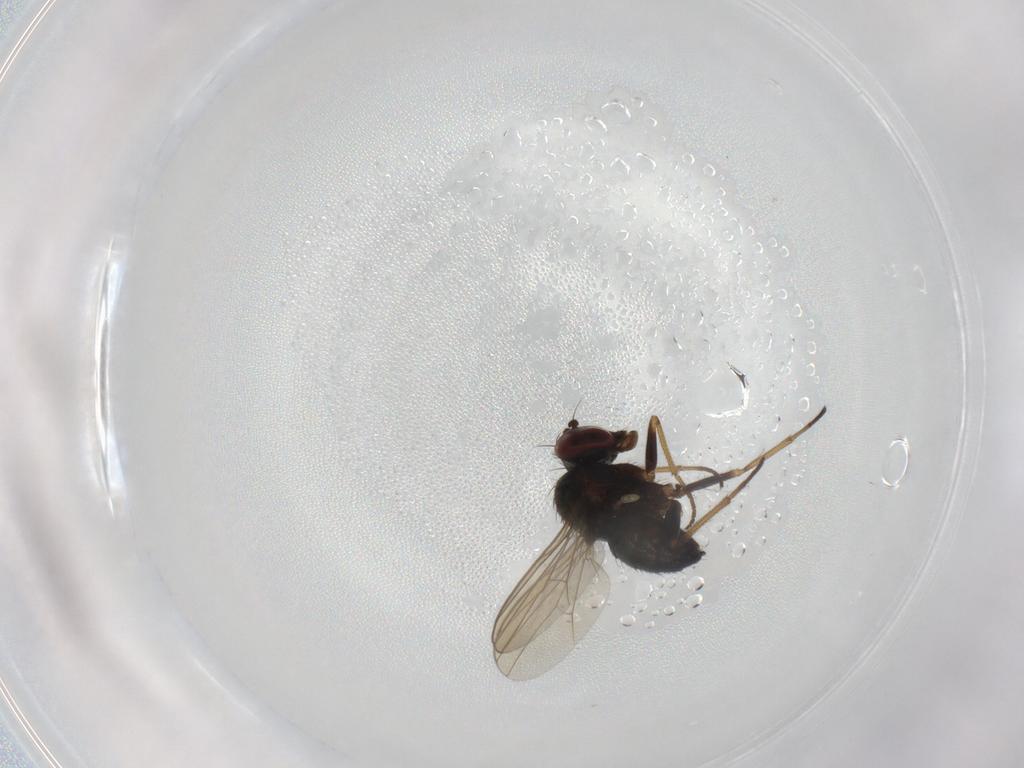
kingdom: Animalia
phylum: Arthropoda
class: Insecta
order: Diptera
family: Dolichopodidae
